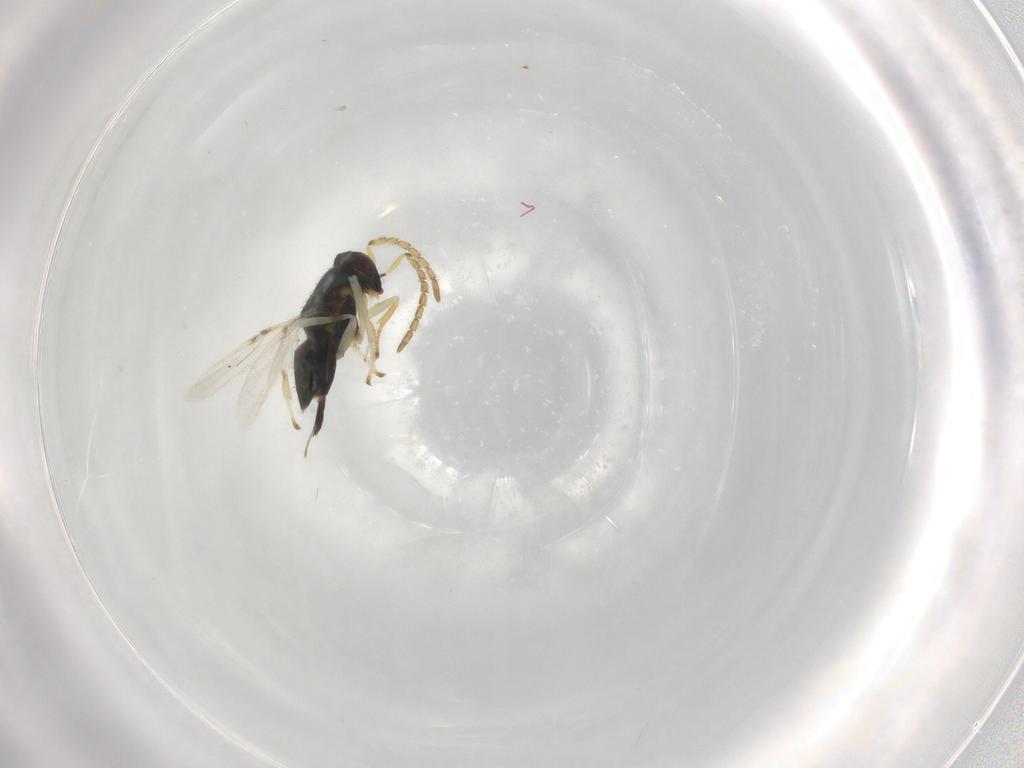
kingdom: Animalia
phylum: Arthropoda
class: Insecta
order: Hymenoptera
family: Encyrtidae
